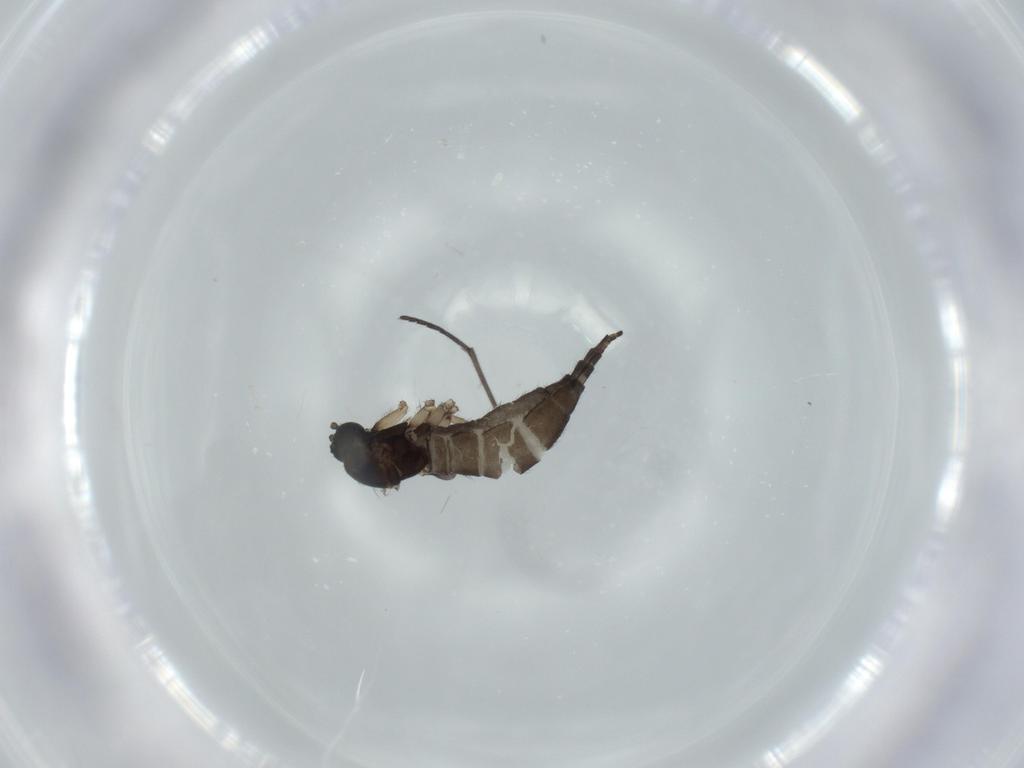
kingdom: Animalia
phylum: Arthropoda
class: Insecta
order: Diptera
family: Sciaridae
